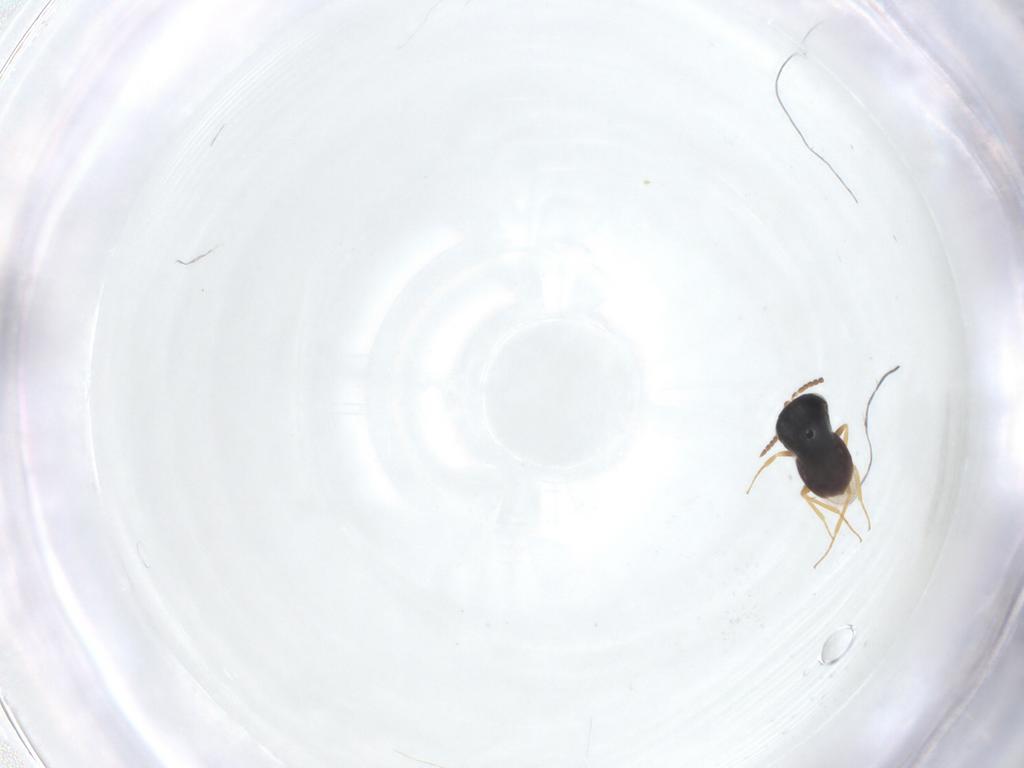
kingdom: Animalia
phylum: Arthropoda
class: Insecta
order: Hymenoptera
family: Scelionidae
